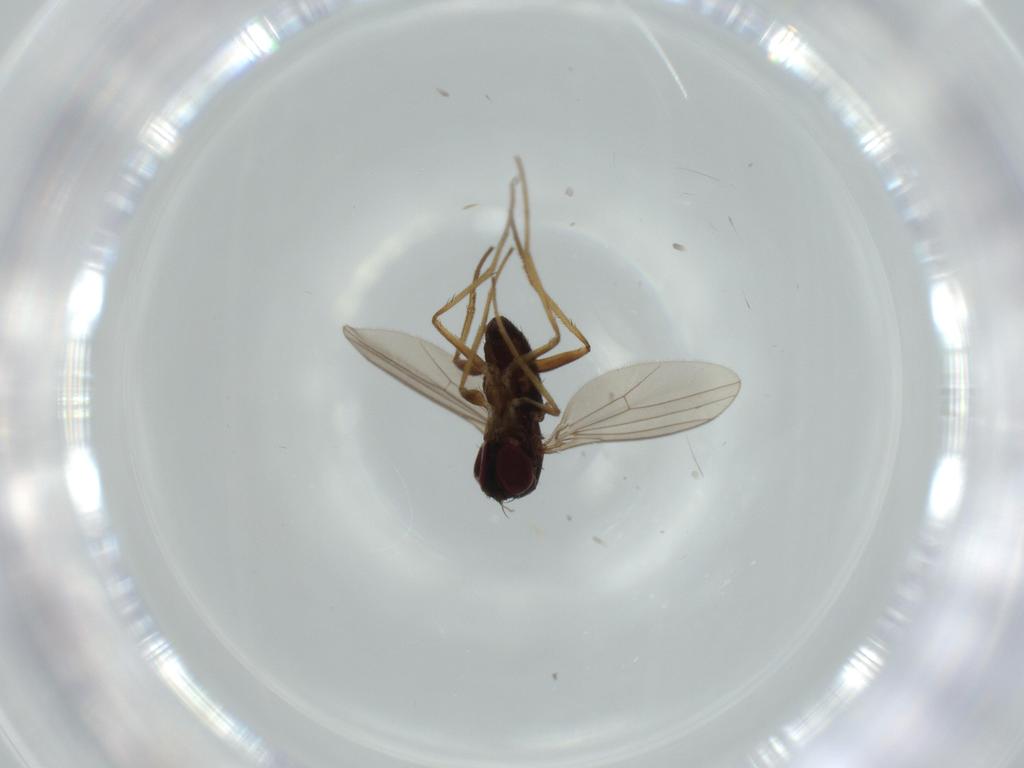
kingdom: Animalia
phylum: Arthropoda
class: Insecta
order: Diptera
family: Dolichopodidae
